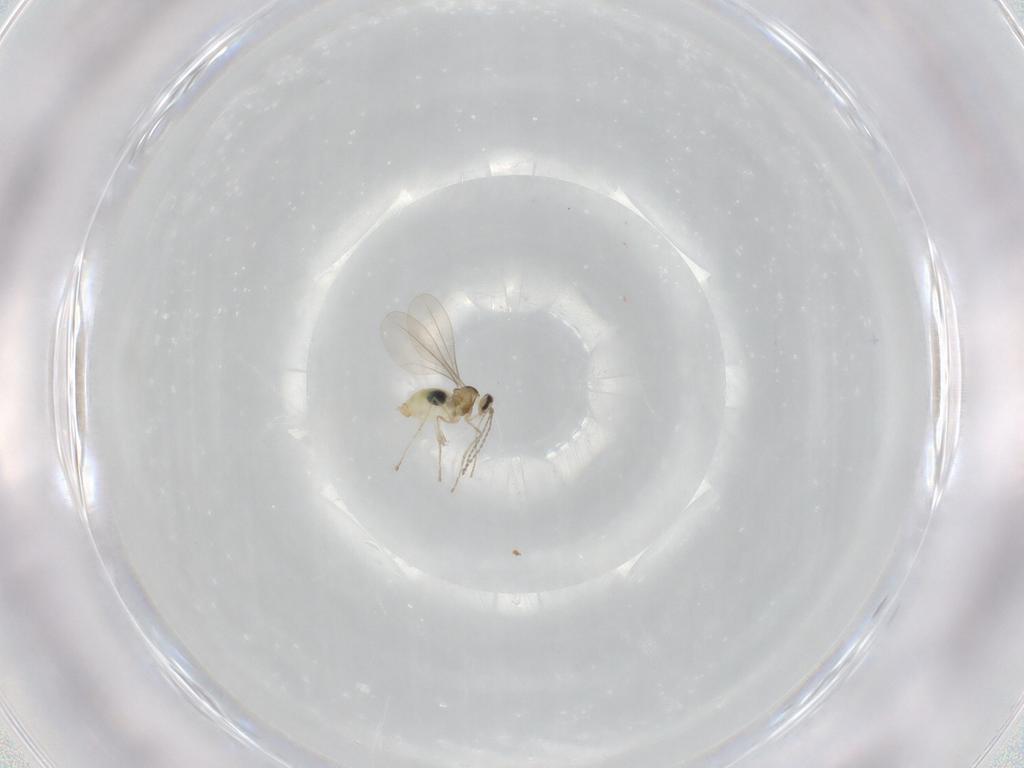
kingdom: Animalia
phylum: Arthropoda
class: Insecta
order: Diptera
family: Cecidomyiidae
